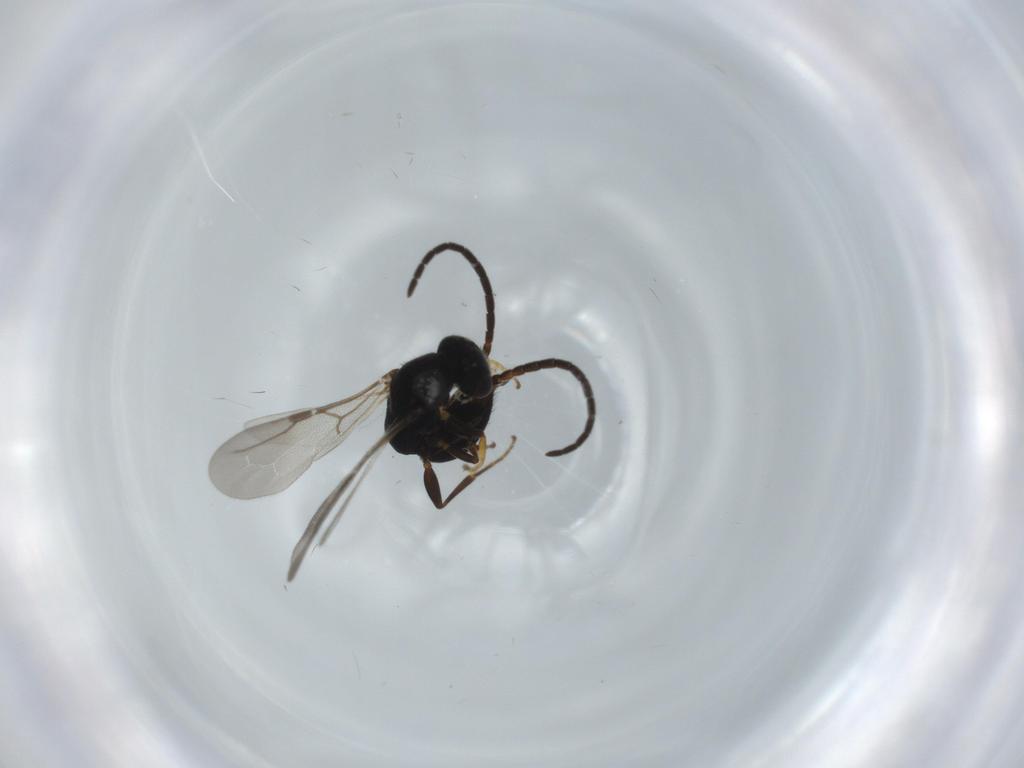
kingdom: Animalia
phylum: Arthropoda
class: Insecta
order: Hymenoptera
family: Bethylidae
